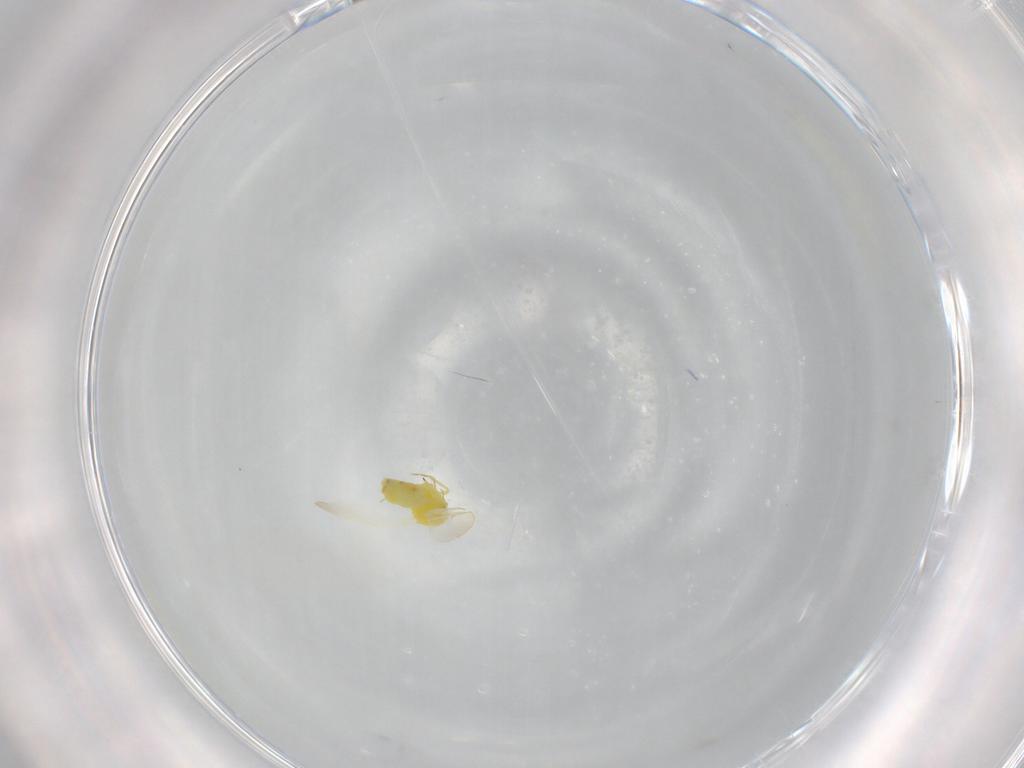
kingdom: Animalia
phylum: Arthropoda
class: Insecta
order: Hemiptera
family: Aleyrodidae
